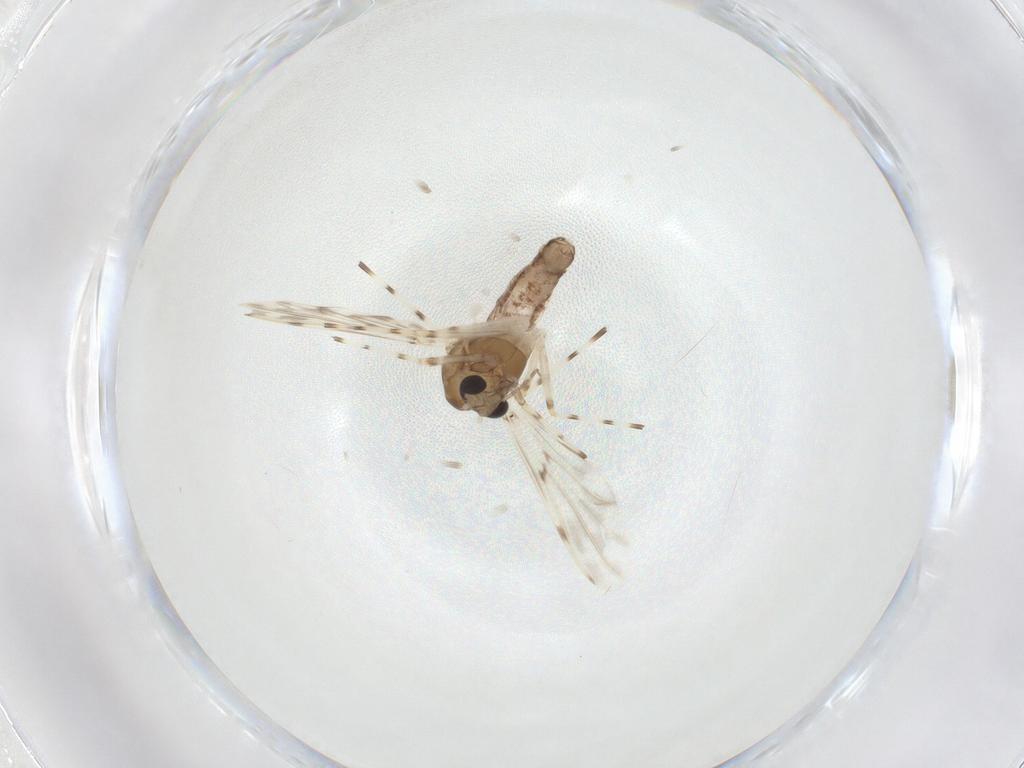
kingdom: Animalia
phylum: Arthropoda
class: Insecta
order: Diptera
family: Chironomidae
